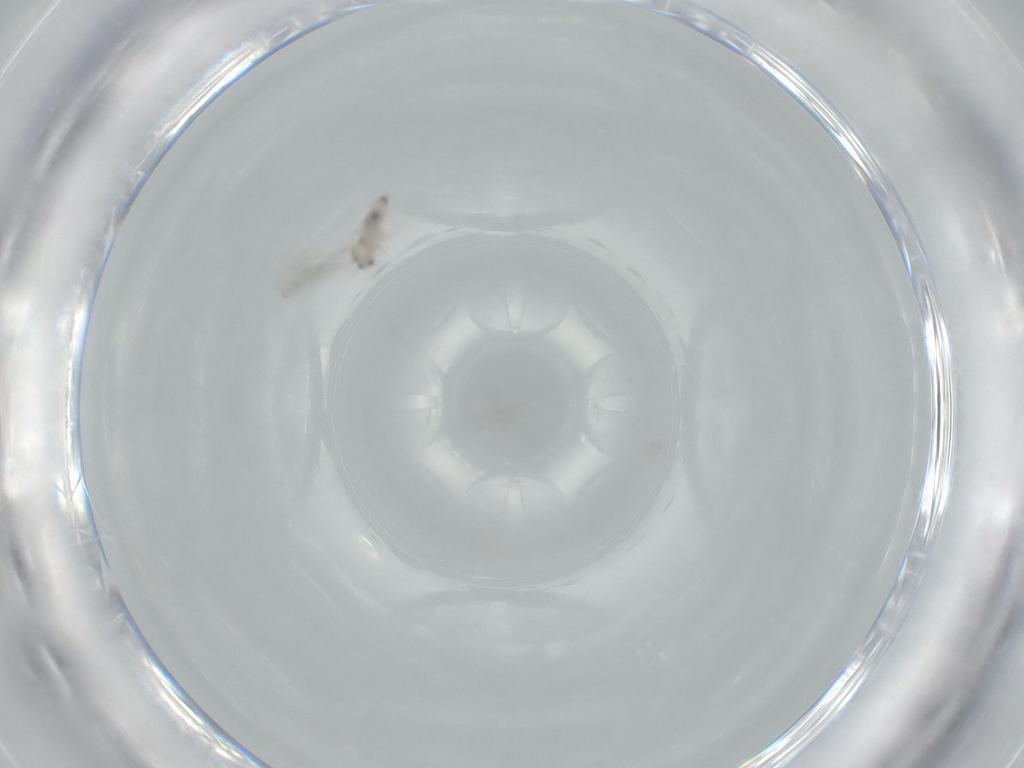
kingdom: Animalia
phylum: Arthropoda
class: Insecta
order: Diptera
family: Cecidomyiidae
